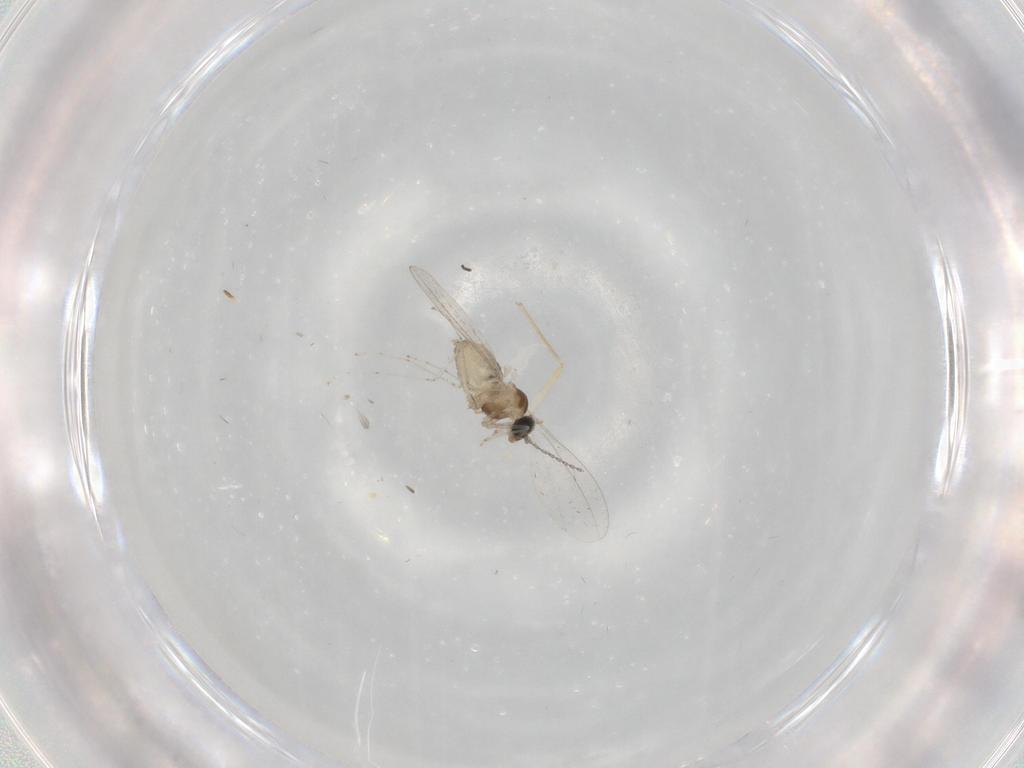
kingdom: Animalia
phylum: Arthropoda
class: Insecta
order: Diptera
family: Cecidomyiidae
